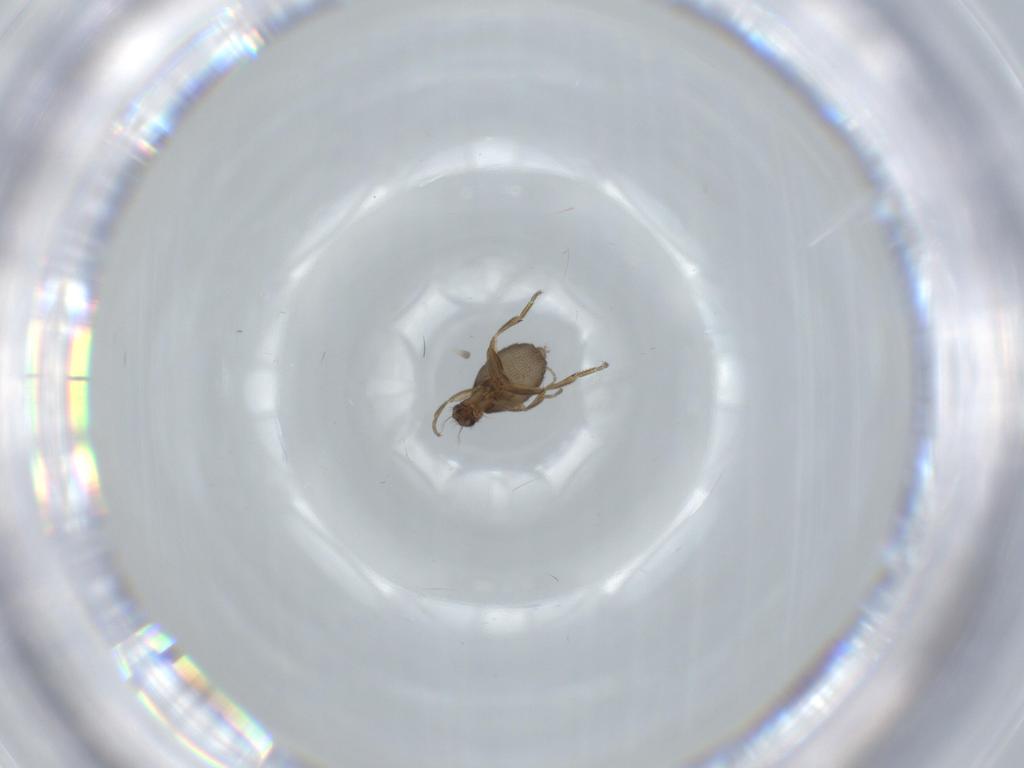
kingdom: Animalia
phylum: Arthropoda
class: Insecta
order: Diptera
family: Phoridae
